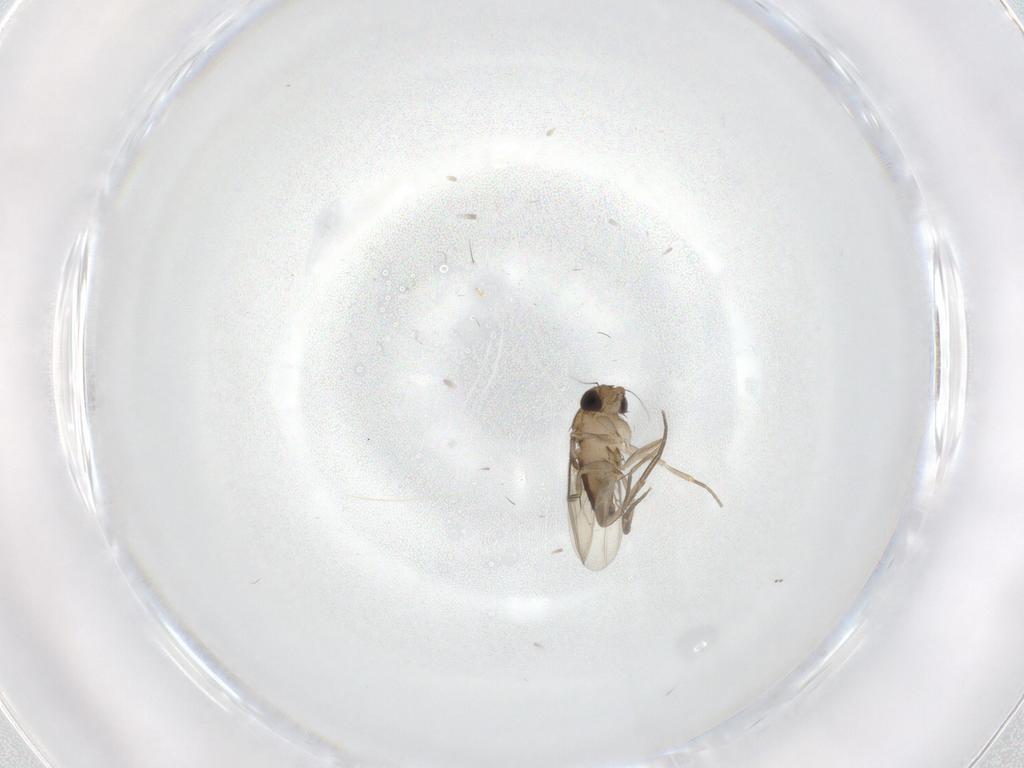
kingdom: Animalia
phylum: Arthropoda
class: Insecta
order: Diptera
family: Phoridae
